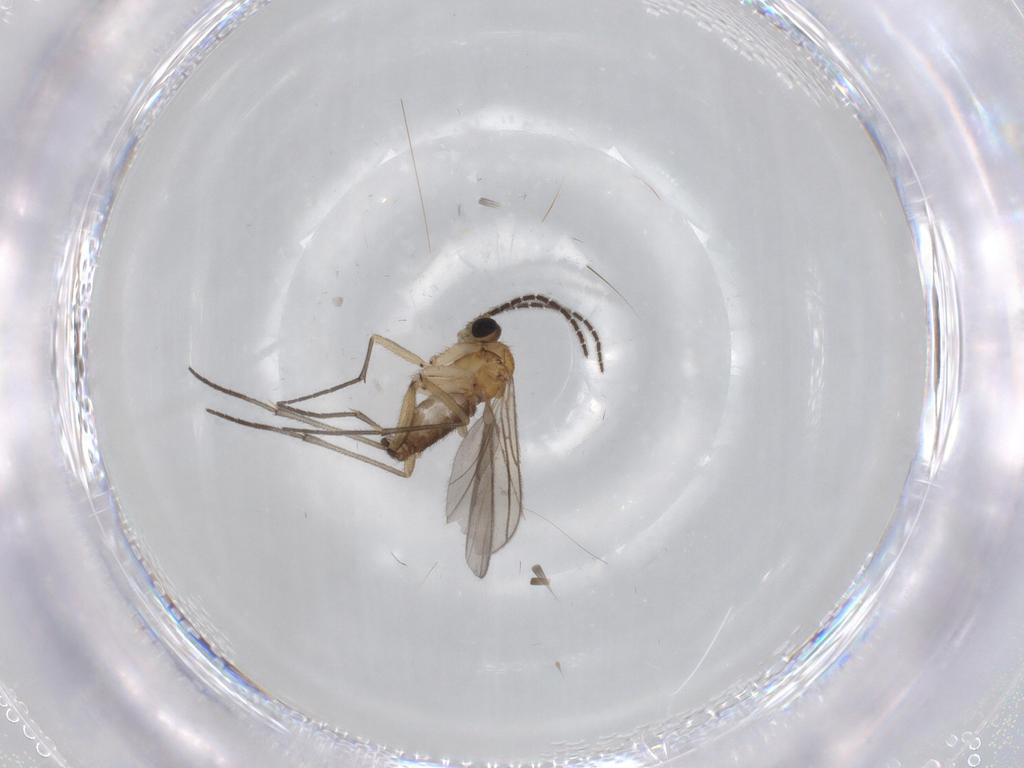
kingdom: Animalia
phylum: Arthropoda
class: Insecta
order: Diptera
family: Sciaridae
